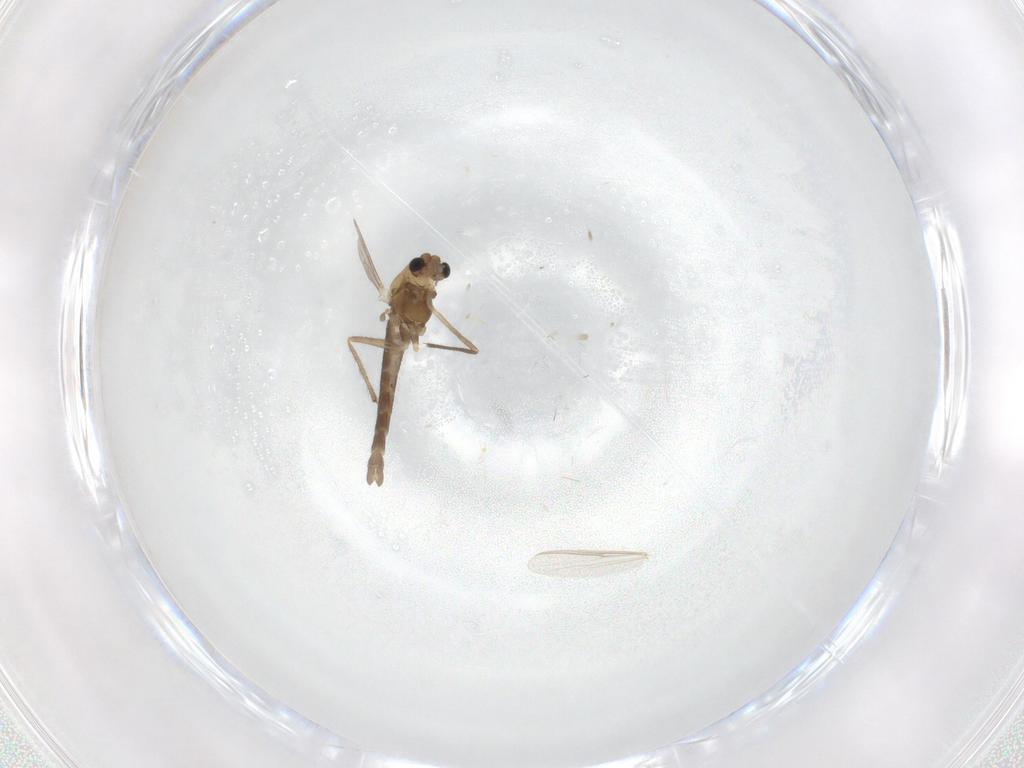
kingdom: Animalia
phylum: Arthropoda
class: Insecta
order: Diptera
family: Chironomidae
